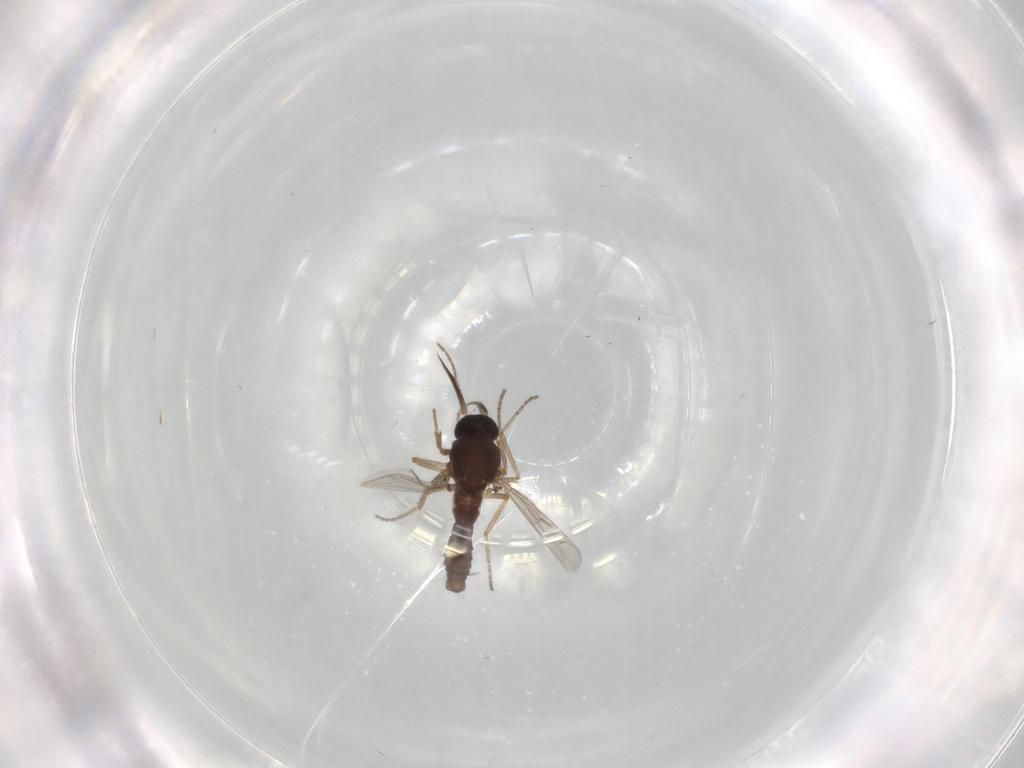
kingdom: Animalia
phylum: Arthropoda
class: Insecta
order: Diptera
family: Ceratopogonidae
